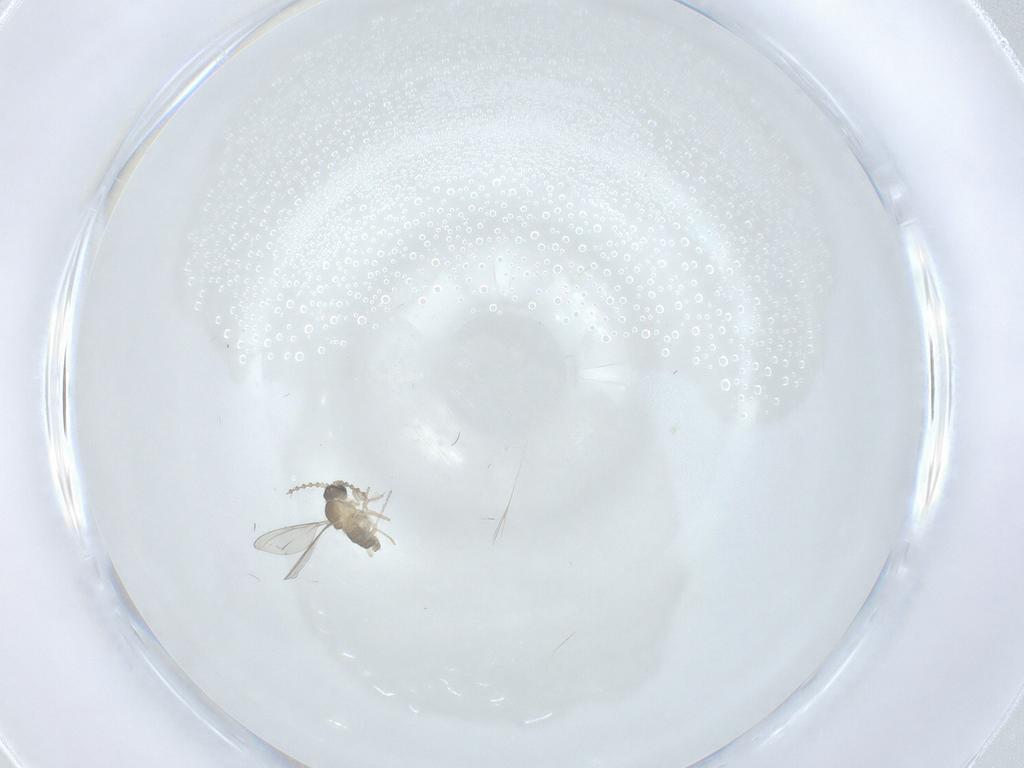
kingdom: Animalia
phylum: Arthropoda
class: Insecta
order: Diptera
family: Cecidomyiidae
